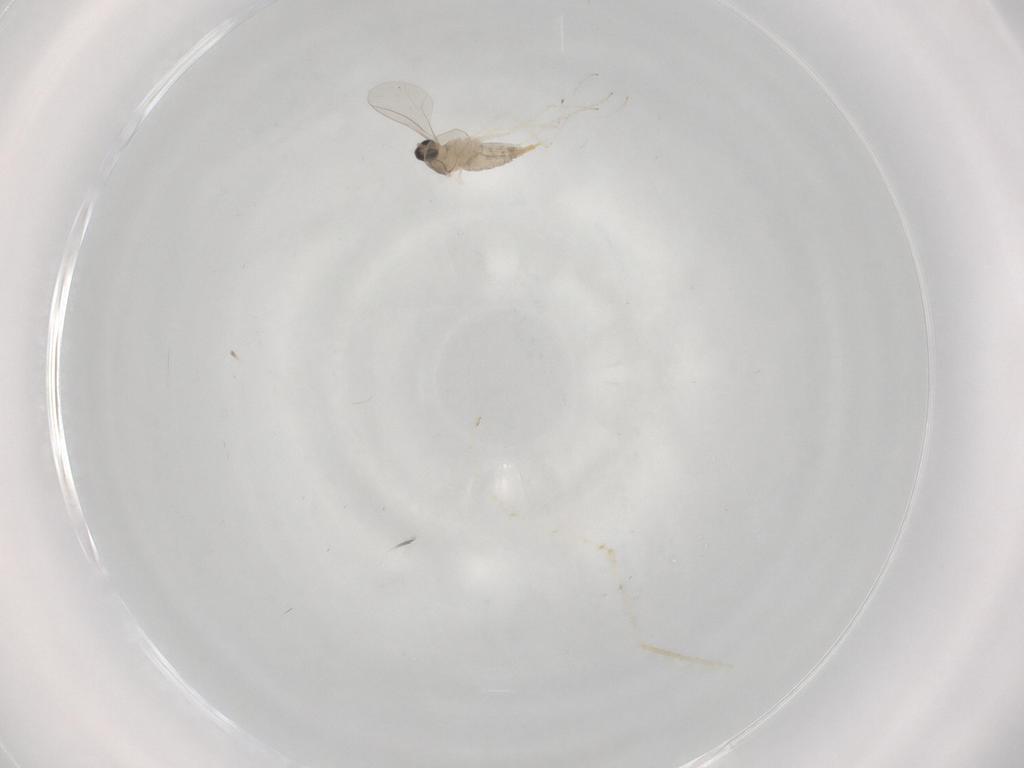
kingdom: Animalia
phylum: Arthropoda
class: Insecta
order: Diptera
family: Cecidomyiidae
